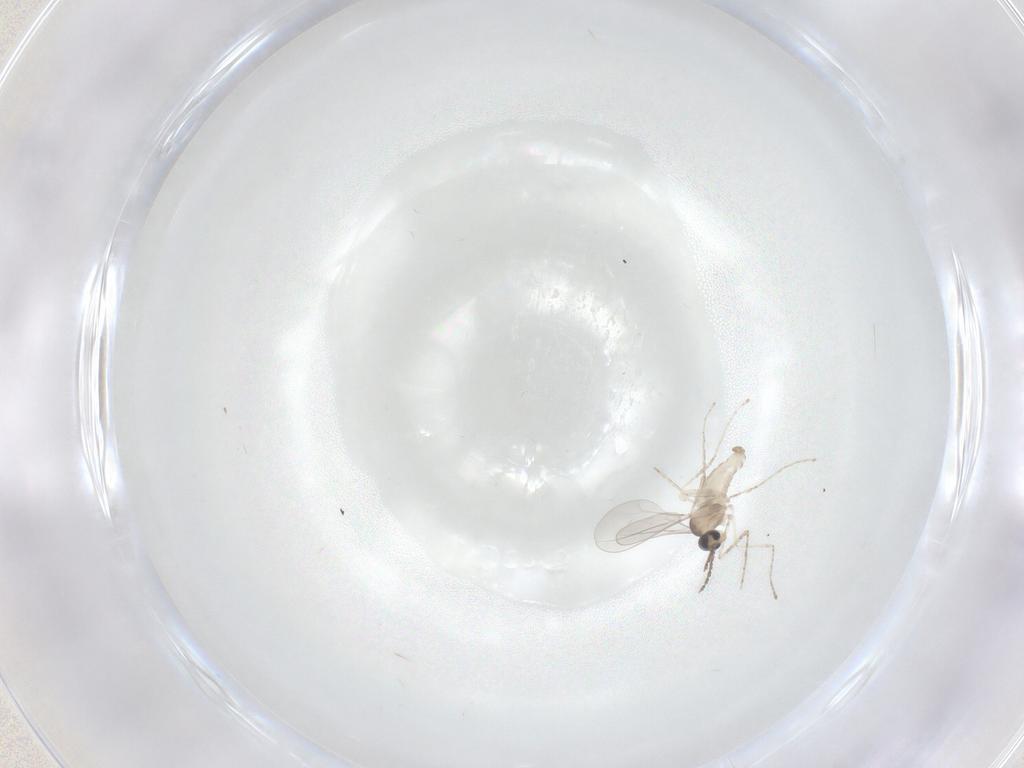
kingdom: Animalia
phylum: Arthropoda
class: Insecta
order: Diptera
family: Cecidomyiidae
